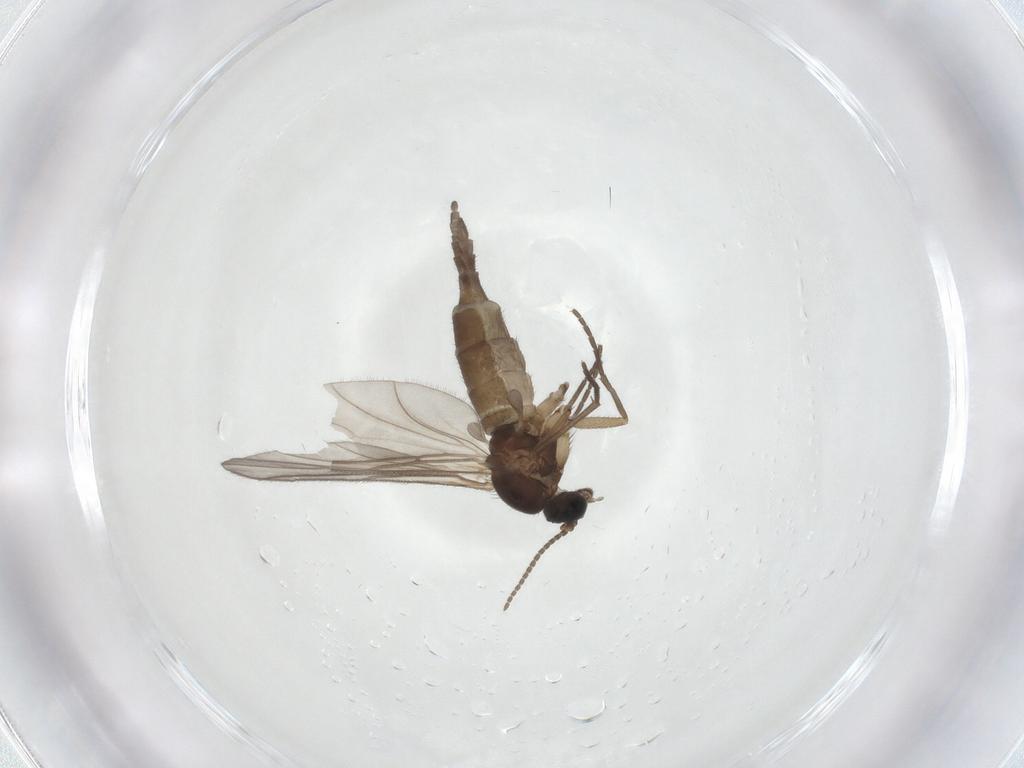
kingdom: Animalia
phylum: Arthropoda
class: Insecta
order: Diptera
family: Sciaridae
